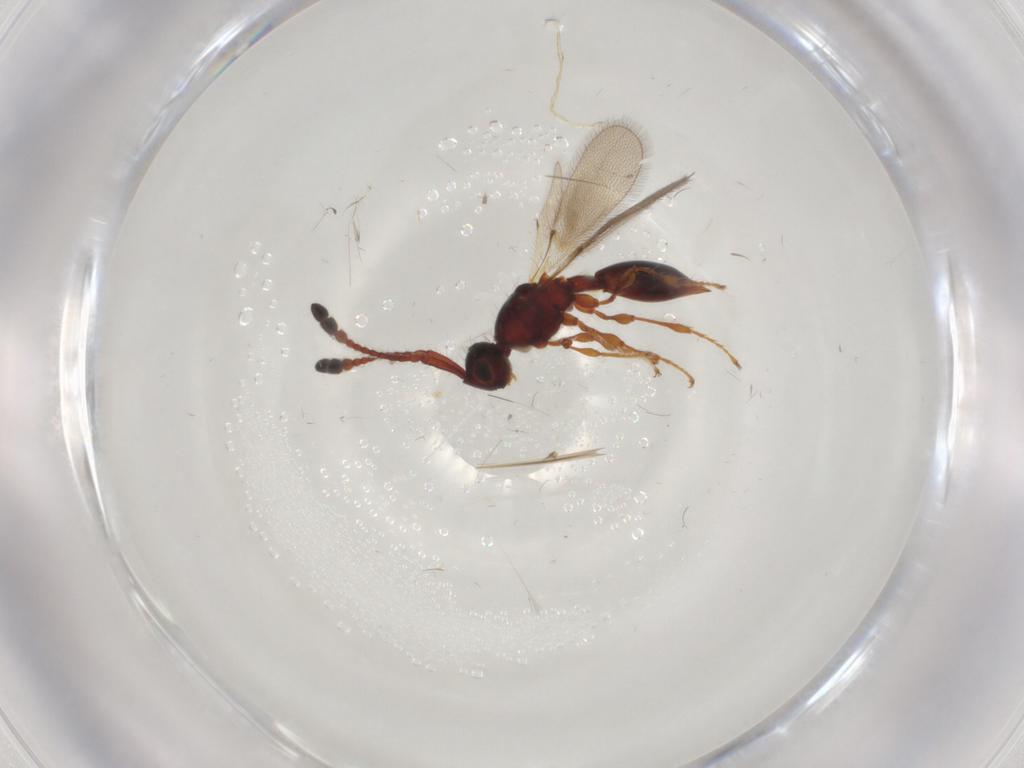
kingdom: Animalia
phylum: Arthropoda
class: Insecta
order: Hymenoptera
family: Diapriidae
